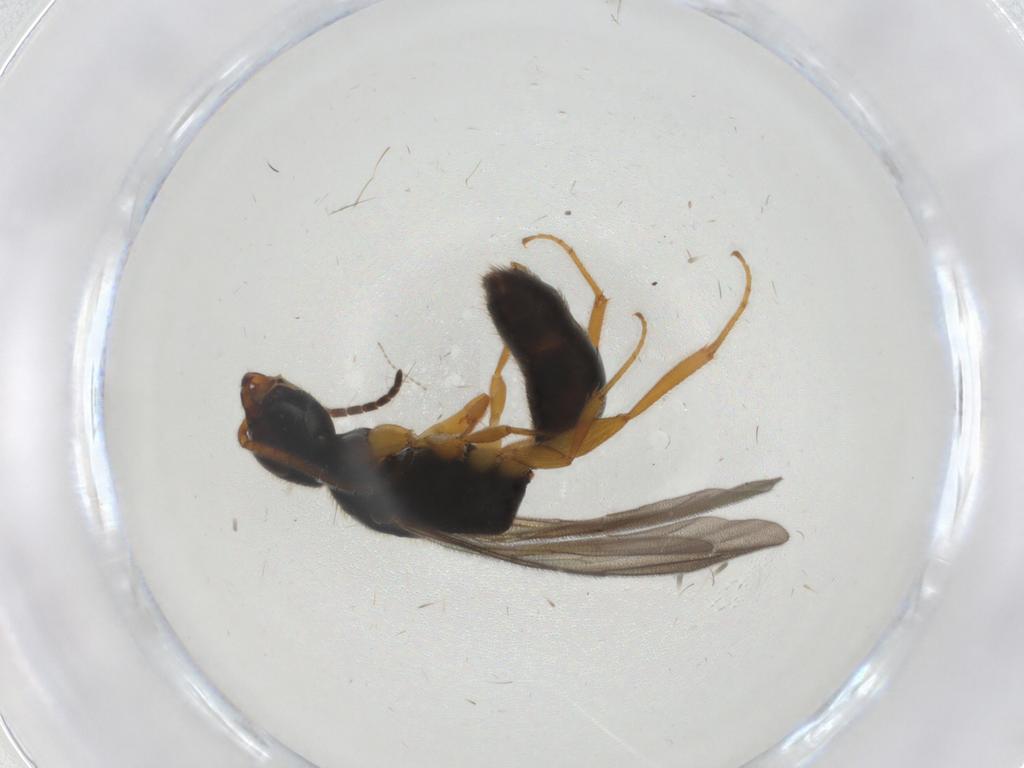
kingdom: Animalia
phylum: Arthropoda
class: Insecta
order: Hymenoptera
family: Bethylidae
